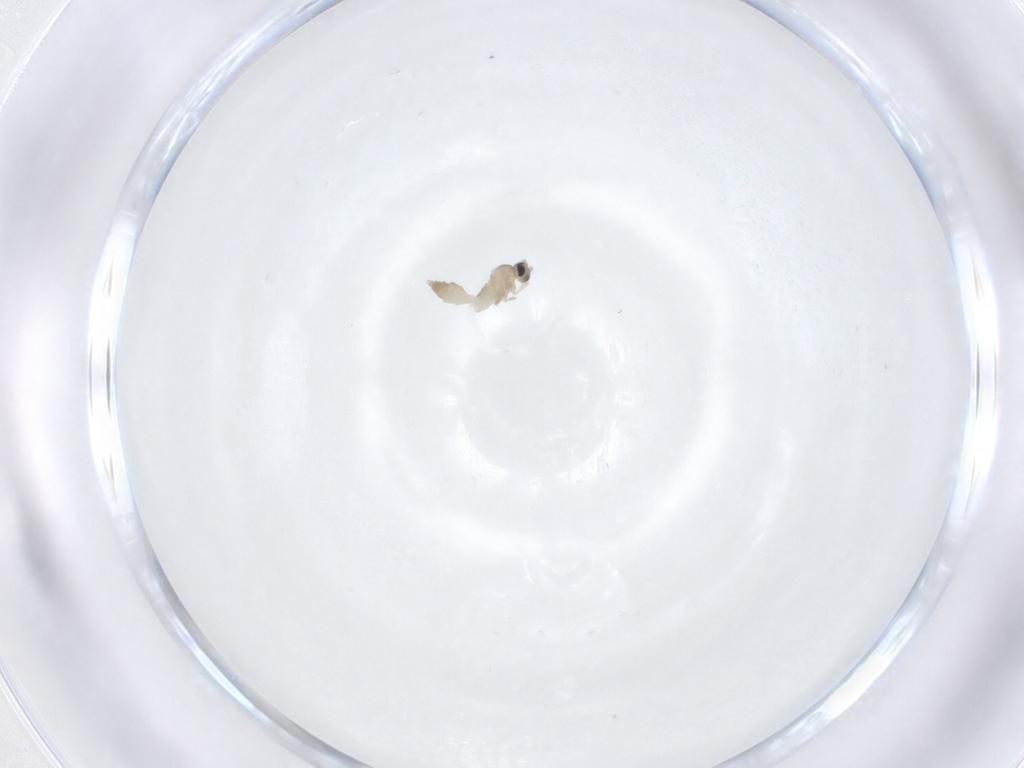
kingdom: Animalia
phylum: Arthropoda
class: Insecta
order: Diptera
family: Cecidomyiidae
